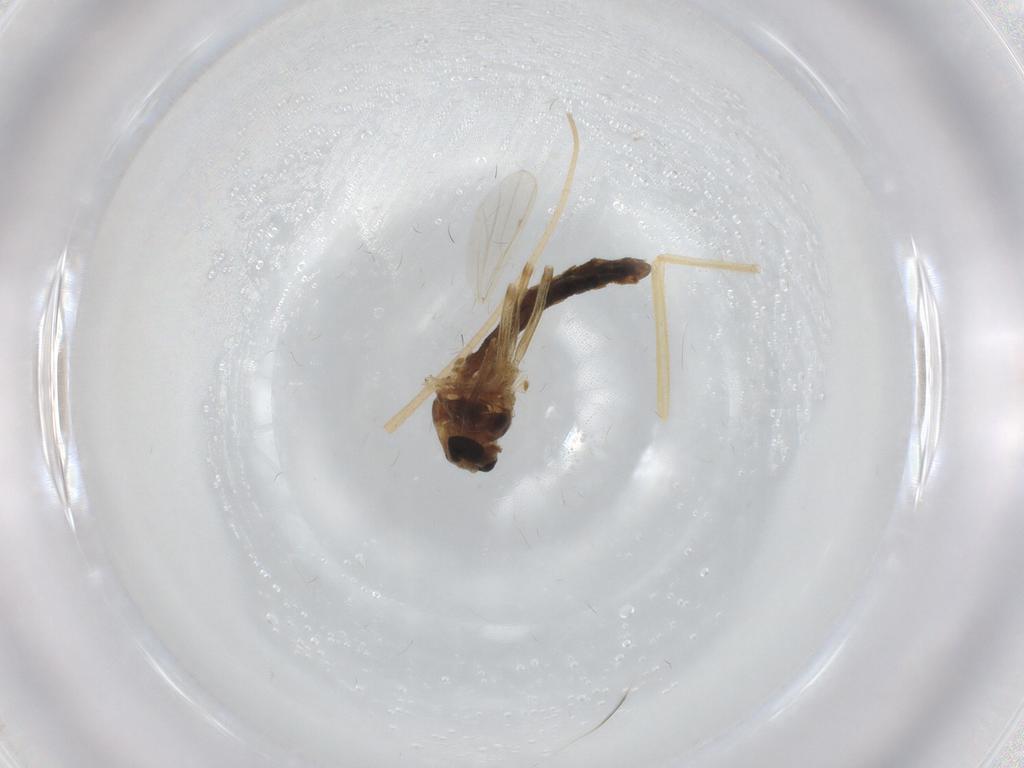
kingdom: Animalia
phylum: Arthropoda
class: Insecta
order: Diptera
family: Chironomidae
